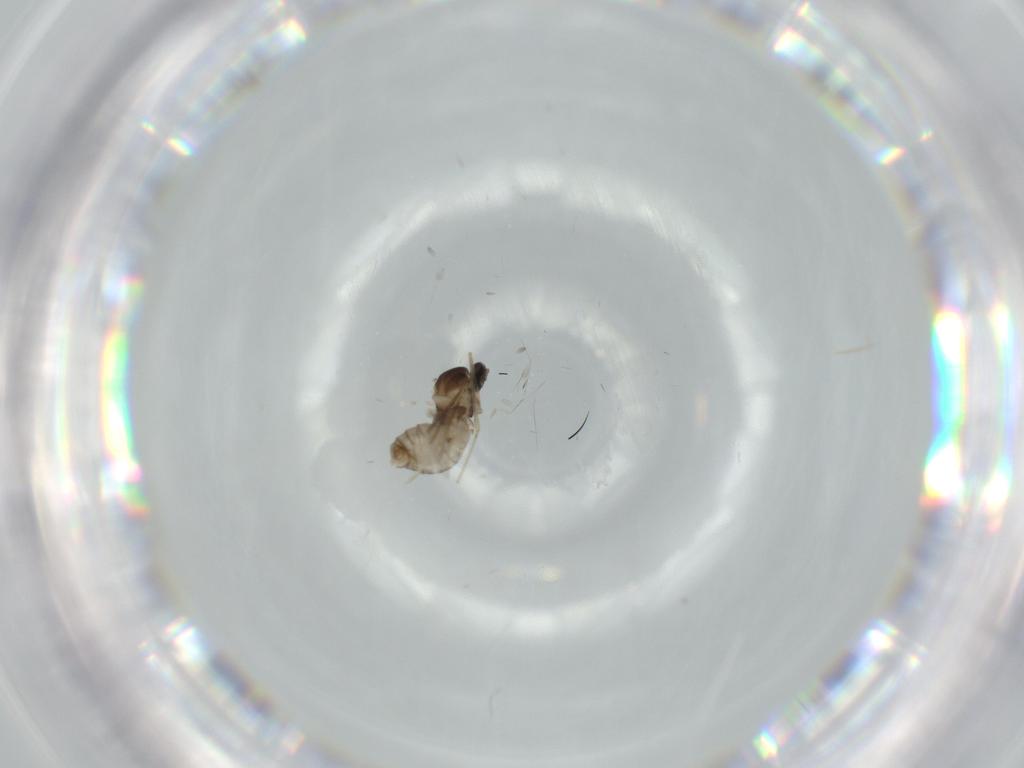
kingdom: Animalia
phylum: Arthropoda
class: Insecta
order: Diptera
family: Cecidomyiidae
